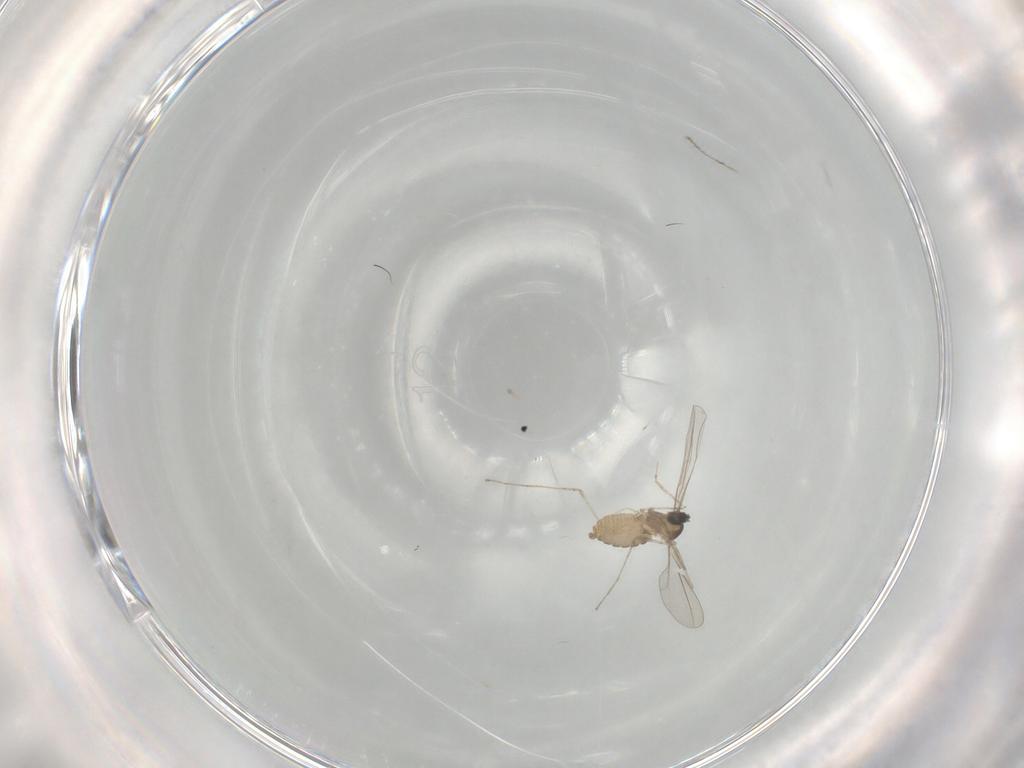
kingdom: Animalia
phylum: Arthropoda
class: Insecta
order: Diptera
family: Cecidomyiidae
